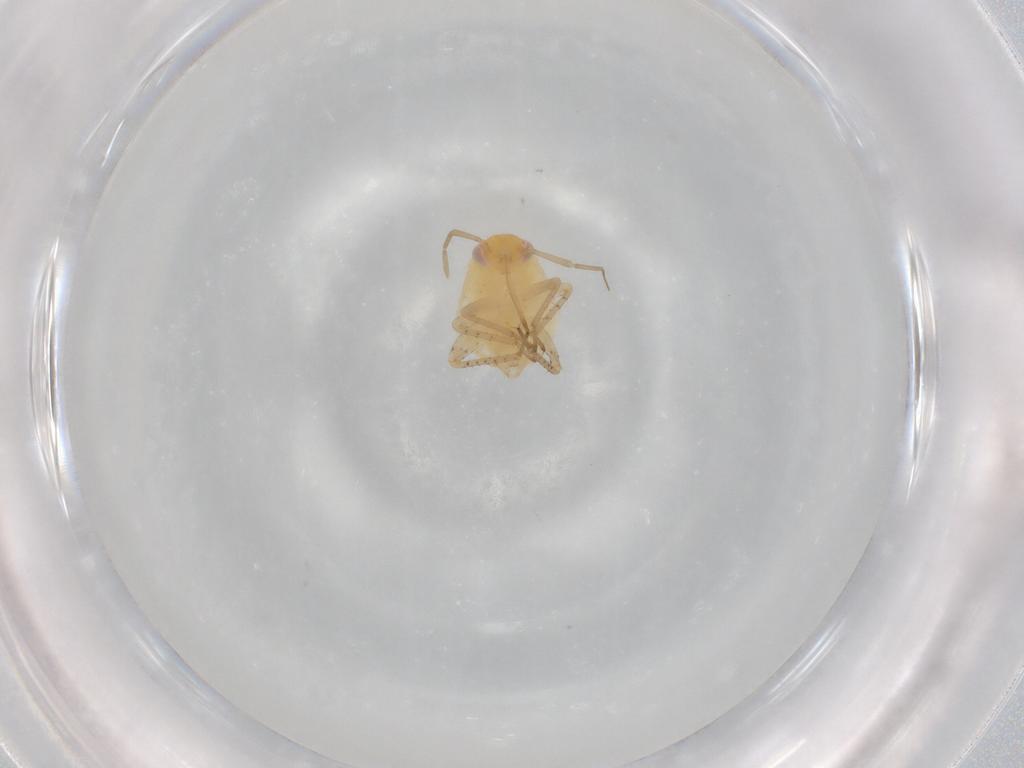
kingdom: Animalia
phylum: Arthropoda
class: Insecta
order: Hemiptera
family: Miridae
